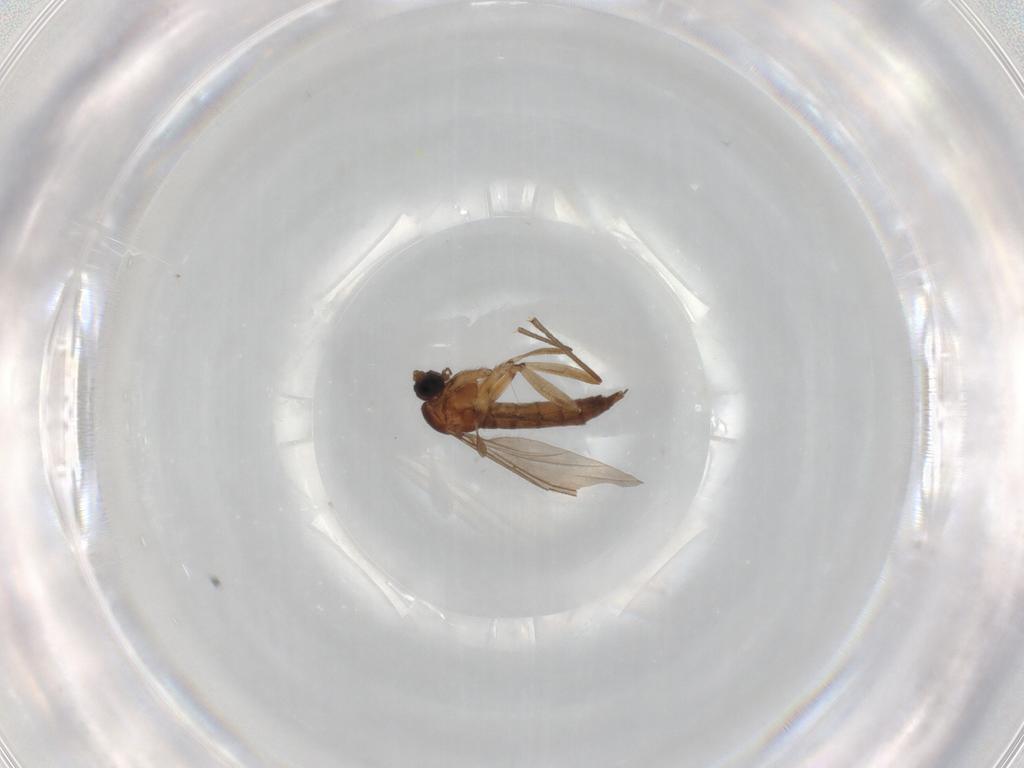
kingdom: Animalia
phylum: Arthropoda
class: Insecta
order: Diptera
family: Sciaridae
